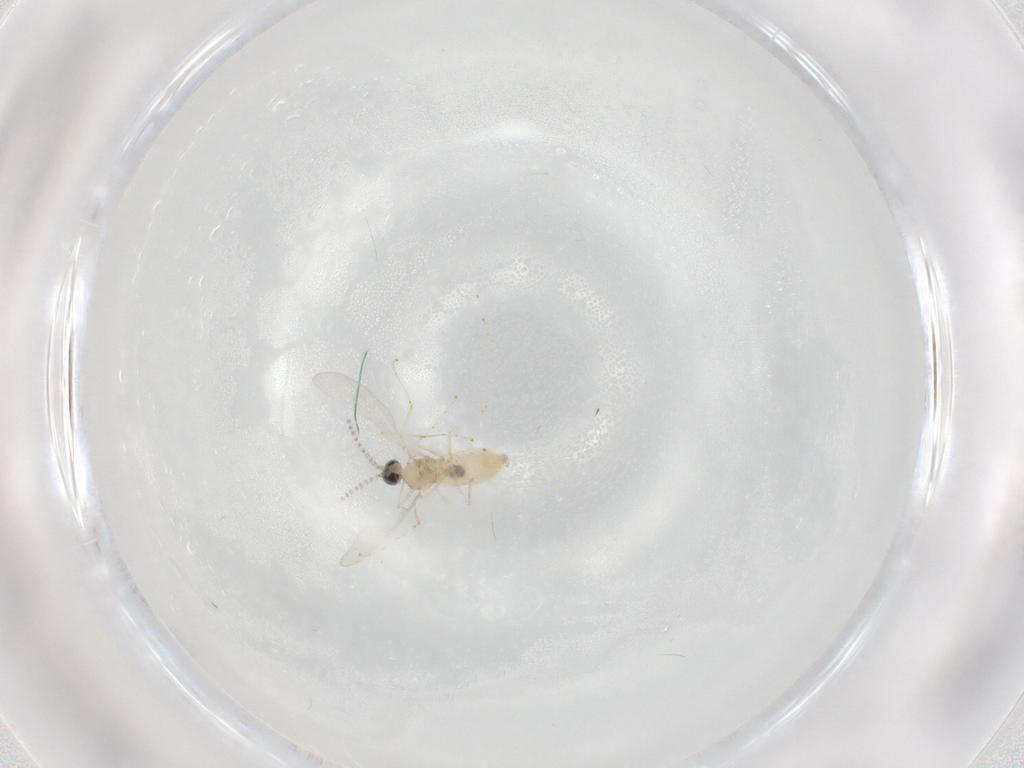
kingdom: Animalia
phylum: Arthropoda
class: Insecta
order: Diptera
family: Cecidomyiidae
